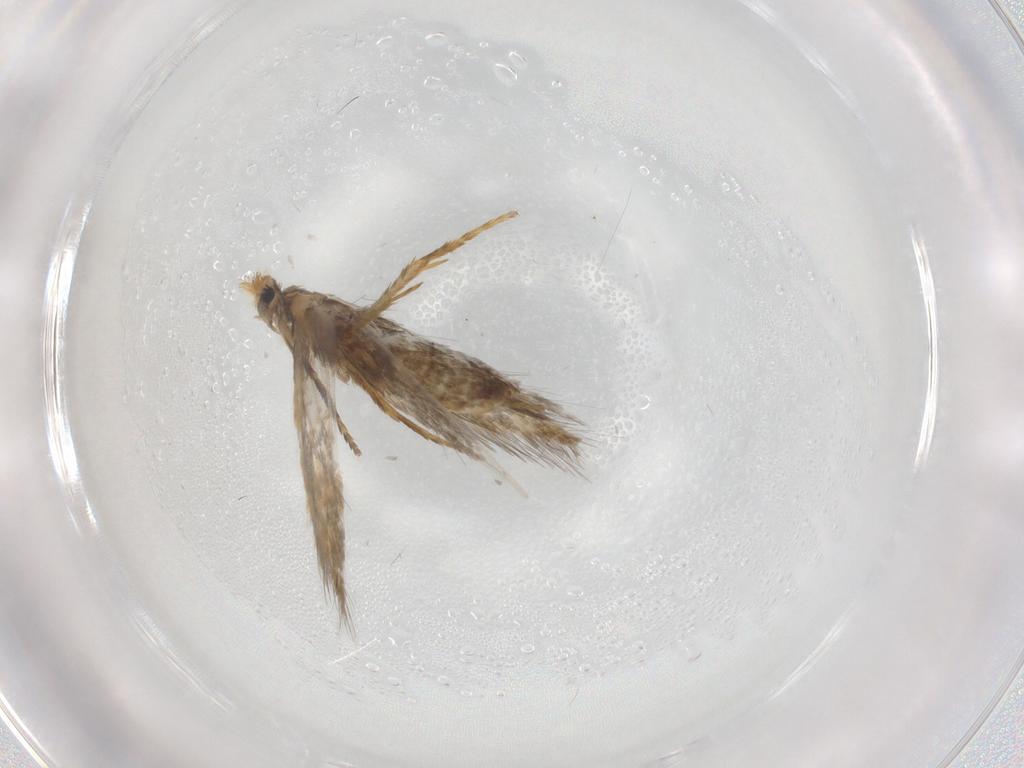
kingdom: Animalia
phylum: Arthropoda
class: Insecta
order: Lepidoptera
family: Nepticulidae
